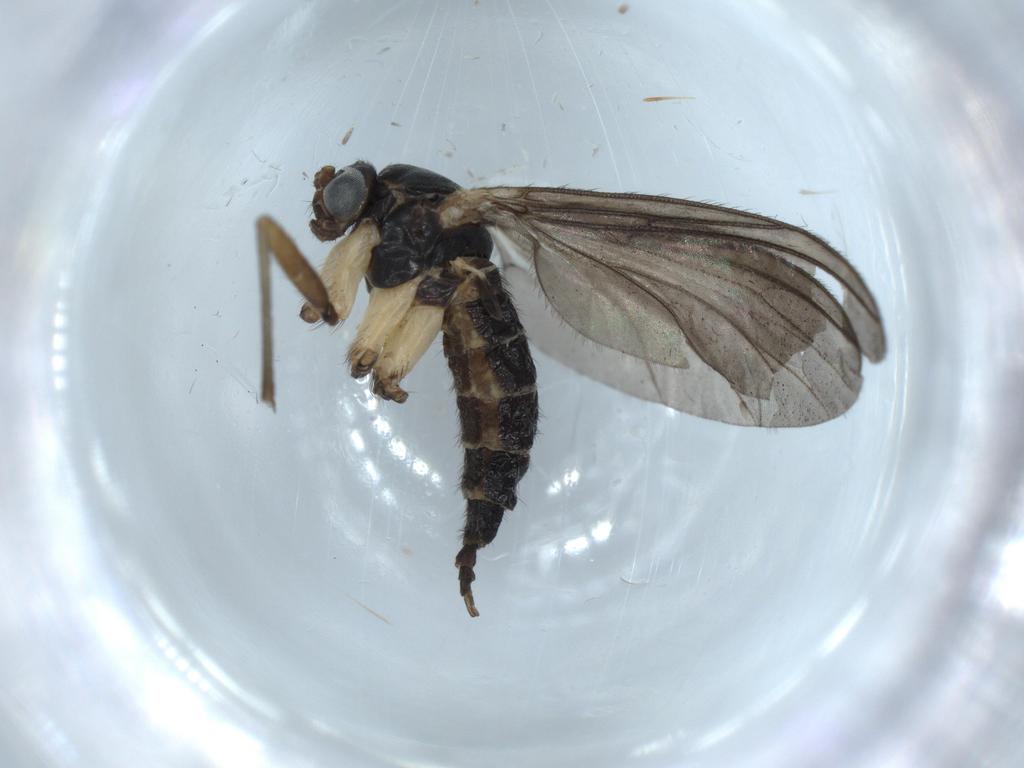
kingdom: Animalia
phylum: Arthropoda
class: Insecta
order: Diptera
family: Sciaridae
